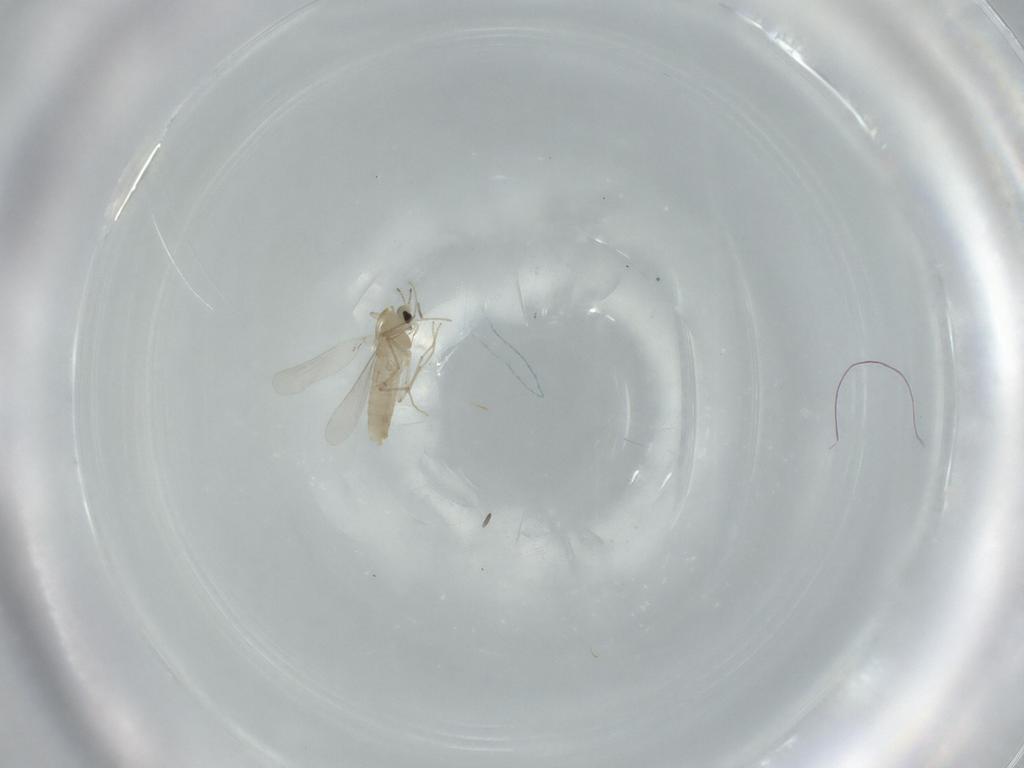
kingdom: Animalia
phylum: Arthropoda
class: Insecta
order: Diptera
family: Chironomidae
